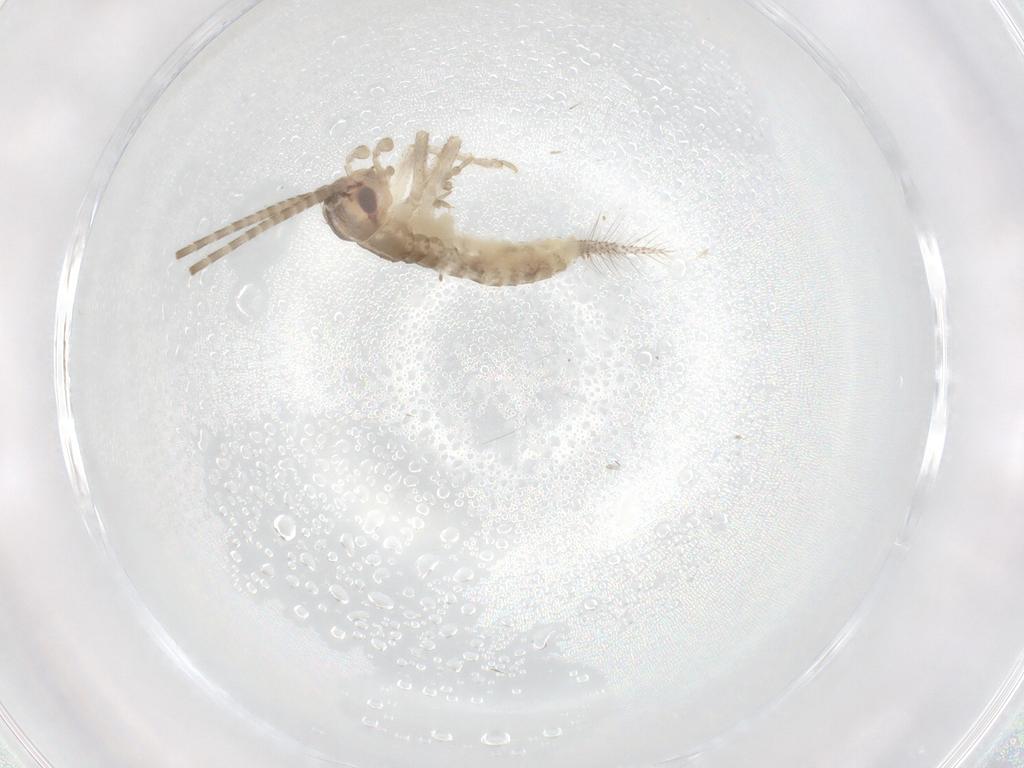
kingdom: Animalia
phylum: Arthropoda
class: Insecta
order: Orthoptera
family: Gryllidae
